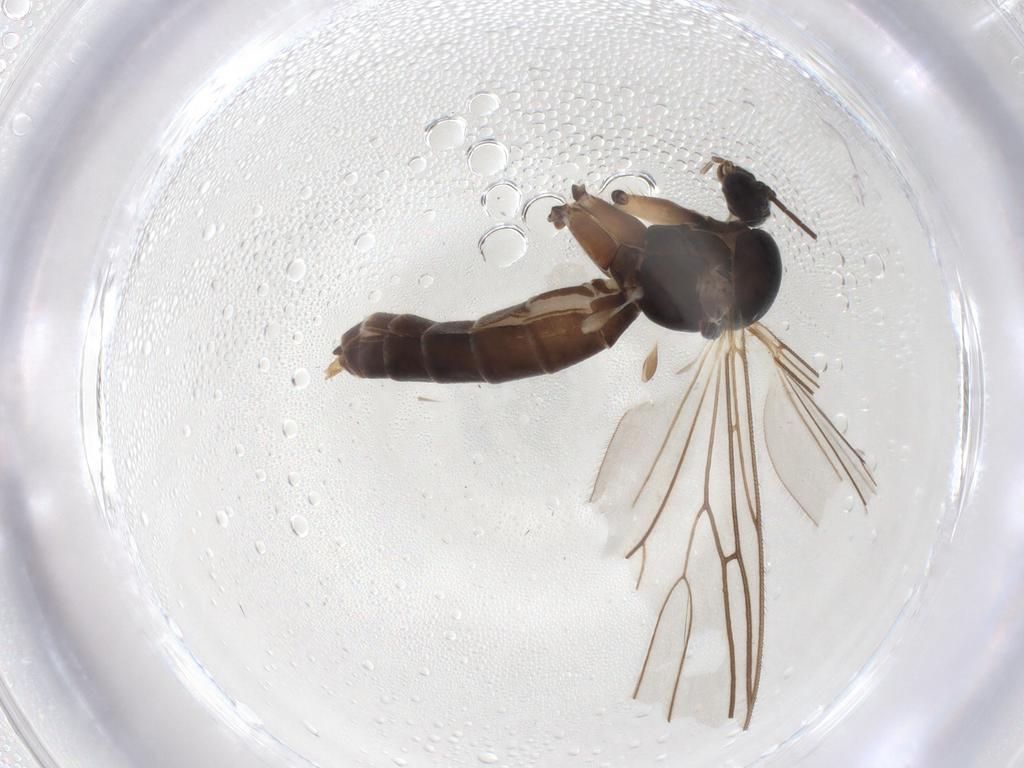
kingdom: Animalia
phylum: Arthropoda
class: Insecta
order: Diptera
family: Mycetophilidae
